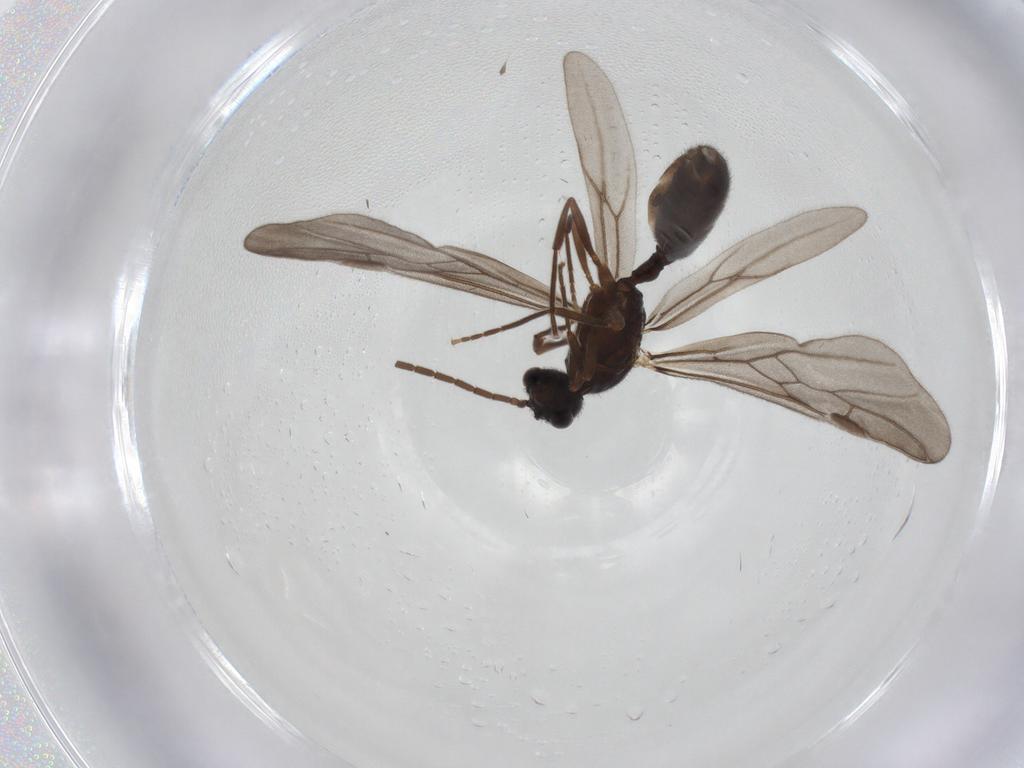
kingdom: Animalia
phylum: Arthropoda
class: Insecta
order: Hymenoptera
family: Formicidae
